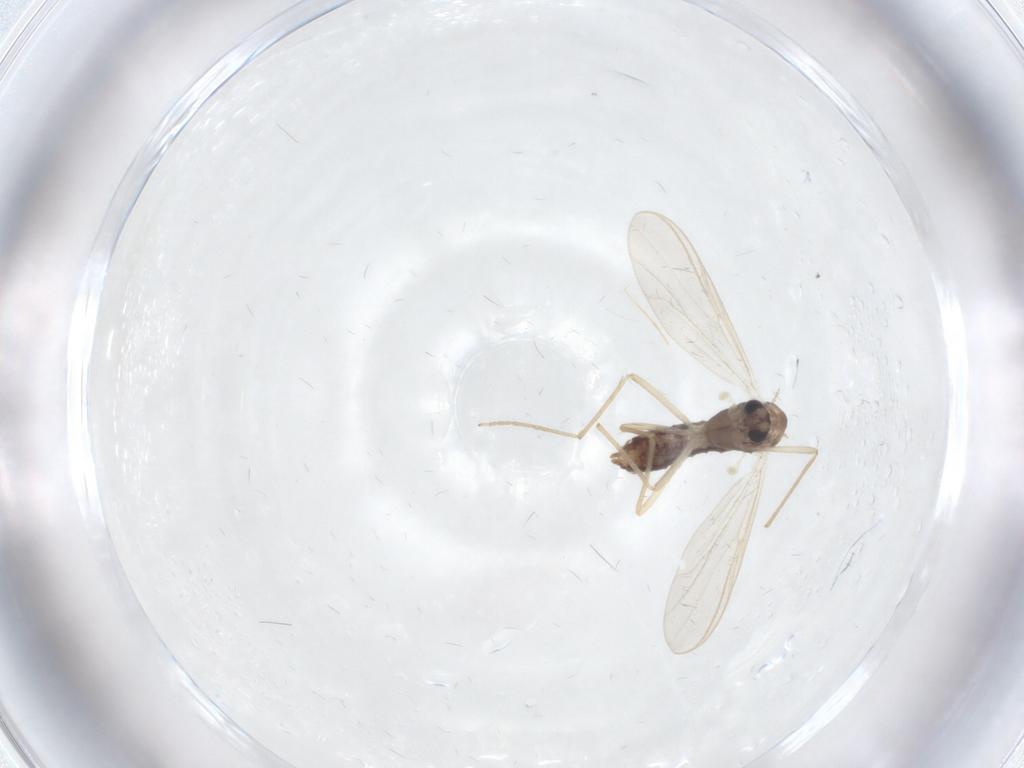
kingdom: Animalia
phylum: Arthropoda
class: Insecta
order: Diptera
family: Chironomidae
